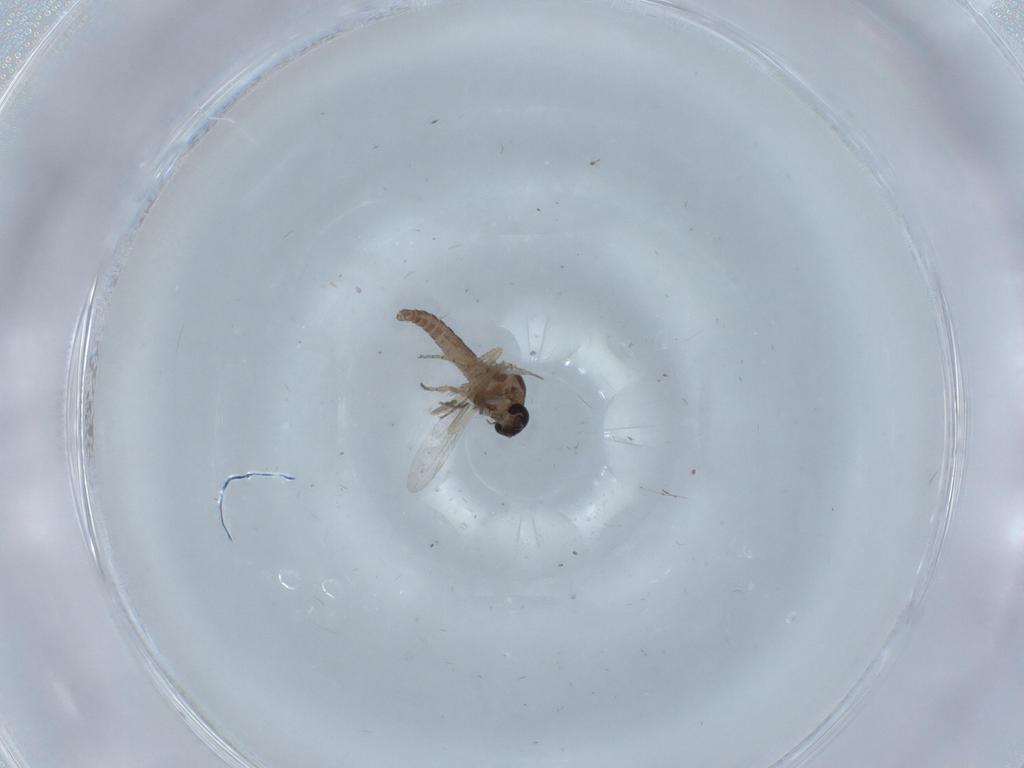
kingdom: Animalia
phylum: Arthropoda
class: Insecta
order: Diptera
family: Ceratopogonidae
